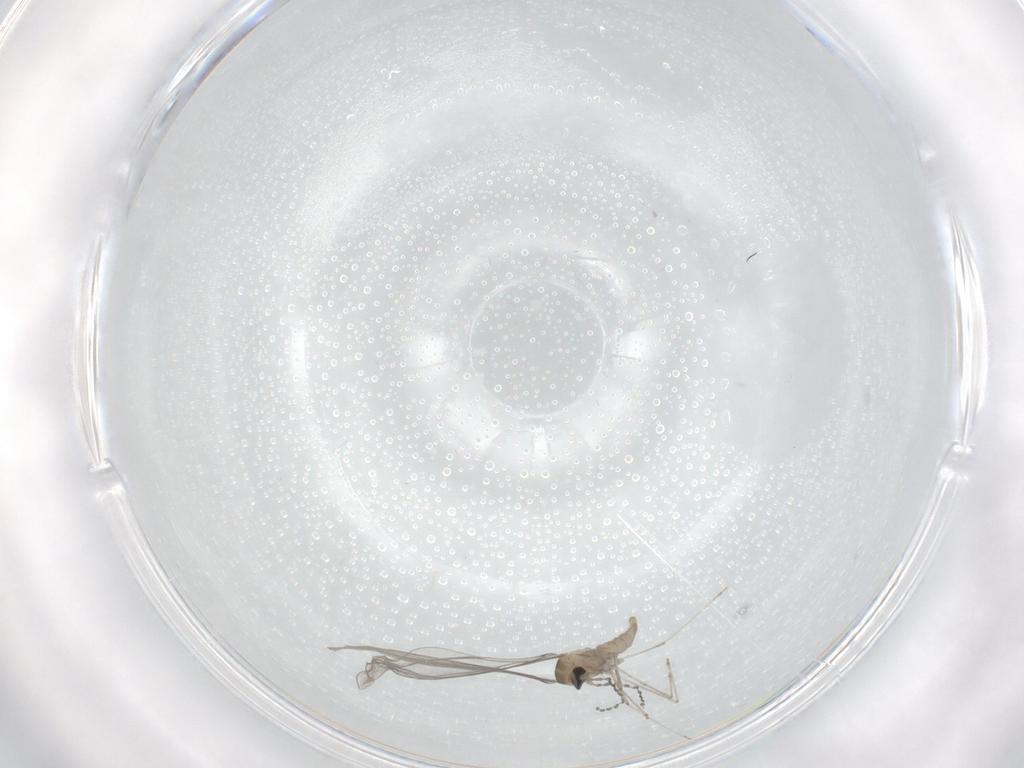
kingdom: Animalia
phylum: Arthropoda
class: Insecta
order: Diptera
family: Cecidomyiidae
